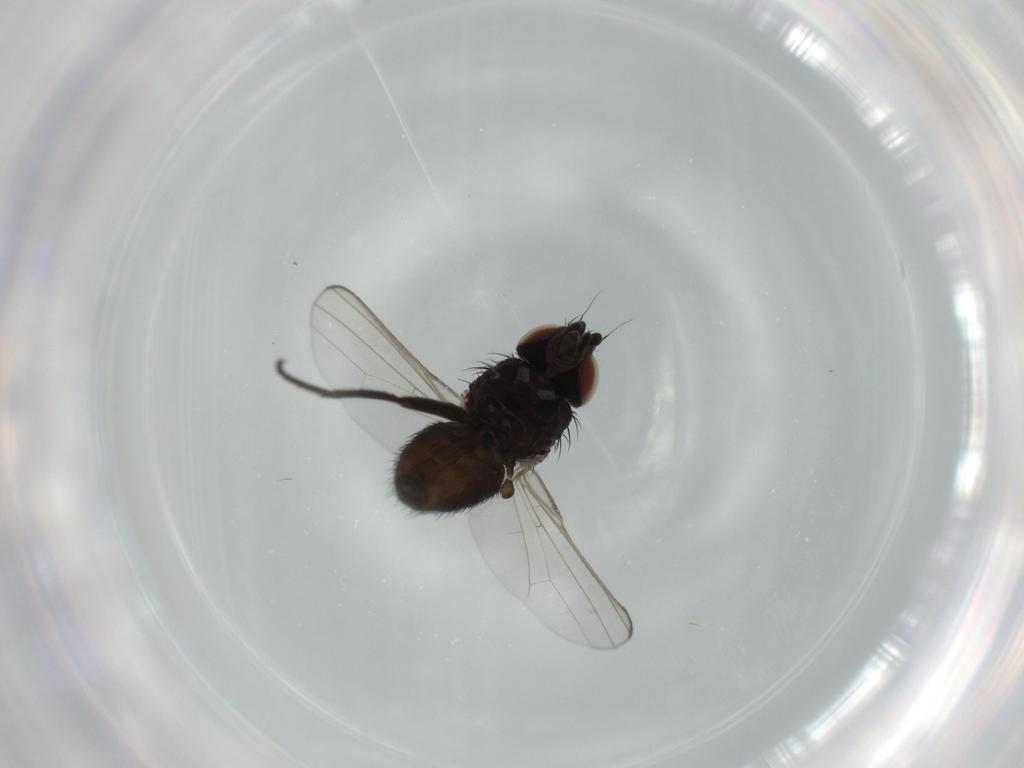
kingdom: Animalia
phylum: Arthropoda
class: Insecta
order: Diptera
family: Milichiidae
